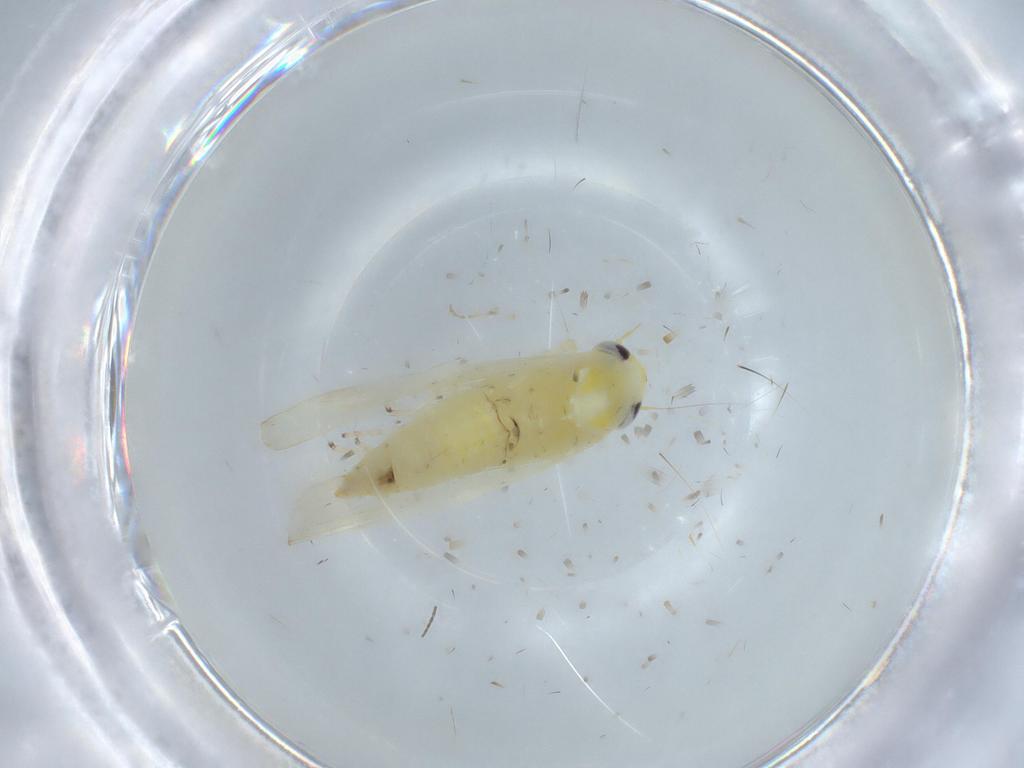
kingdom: Animalia
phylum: Arthropoda
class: Insecta
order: Hemiptera
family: Cicadellidae
